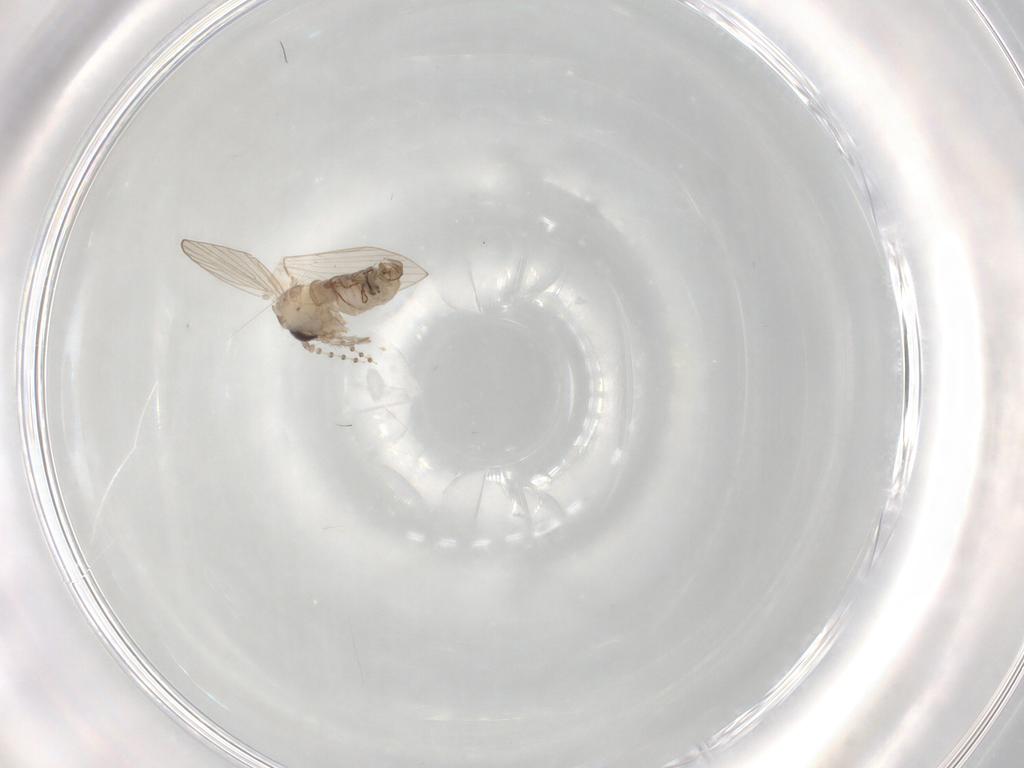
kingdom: Animalia
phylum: Arthropoda
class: Insecta
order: Diptera
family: Psychodidae
